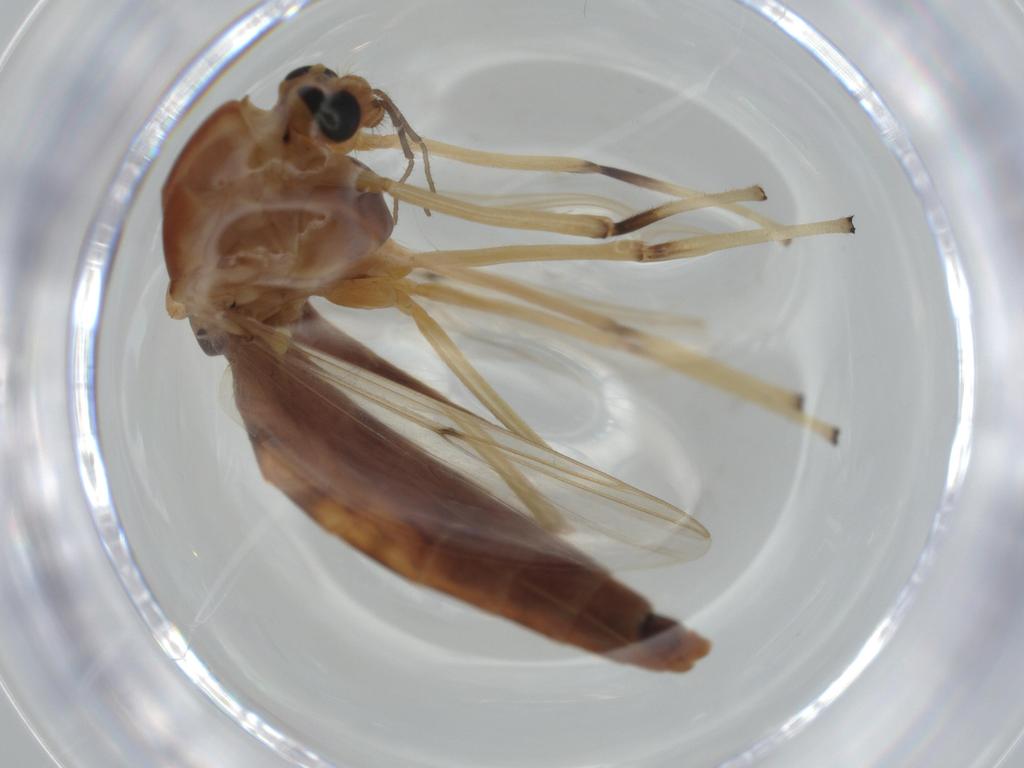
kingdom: Animalia
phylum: Arthropoda
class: Insecta
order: Diptera
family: Chironomidae
